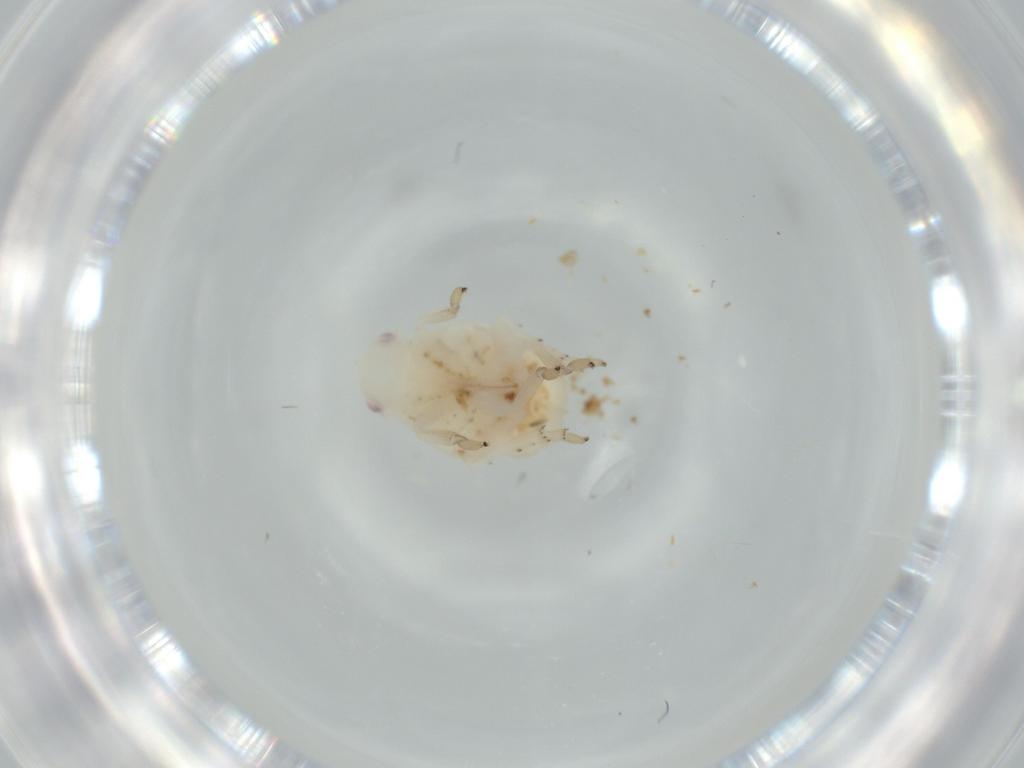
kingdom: Animalia
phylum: Arthropoda
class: Insecta
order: Hemiptera
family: Flatidae
